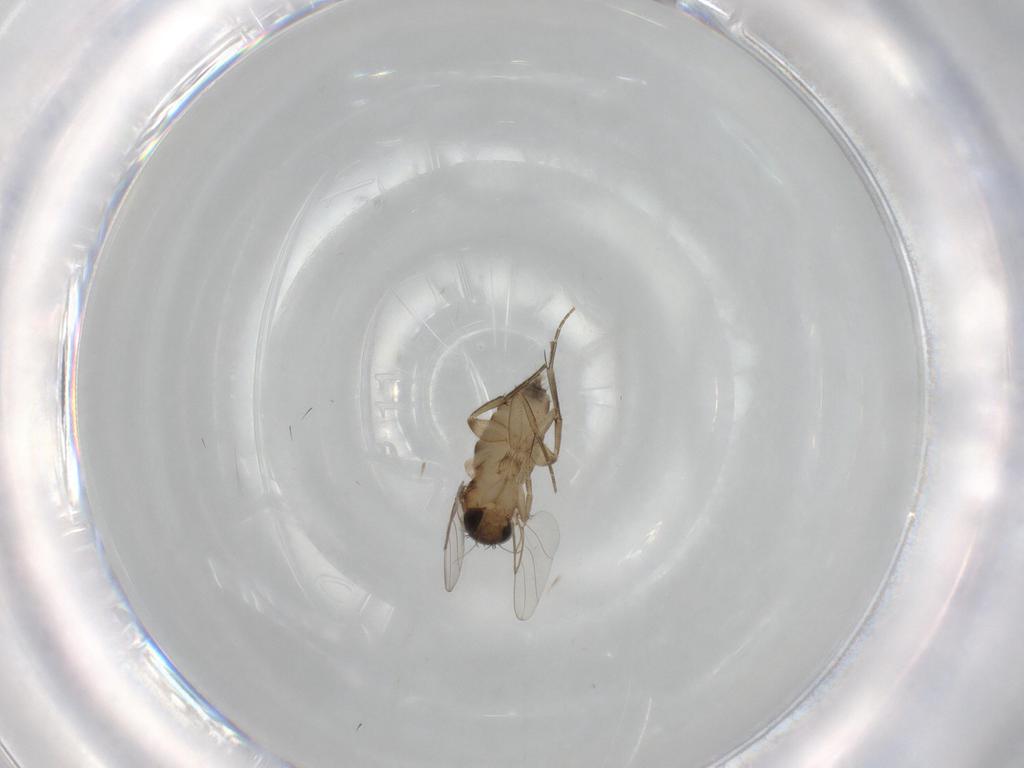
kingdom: Animalia
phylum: Arthropoda
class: Insecta
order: Diptera
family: Phoridae
